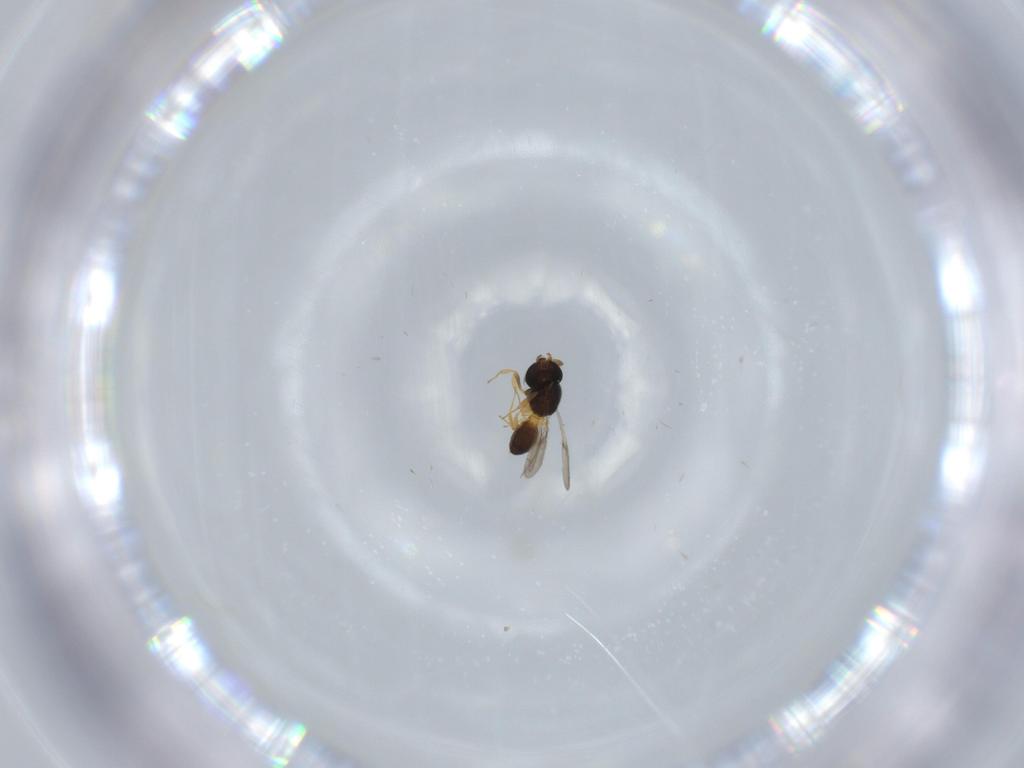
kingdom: Animalia
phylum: Arthropoda
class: Insecta
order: Hymenoptera
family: Scelionidae
